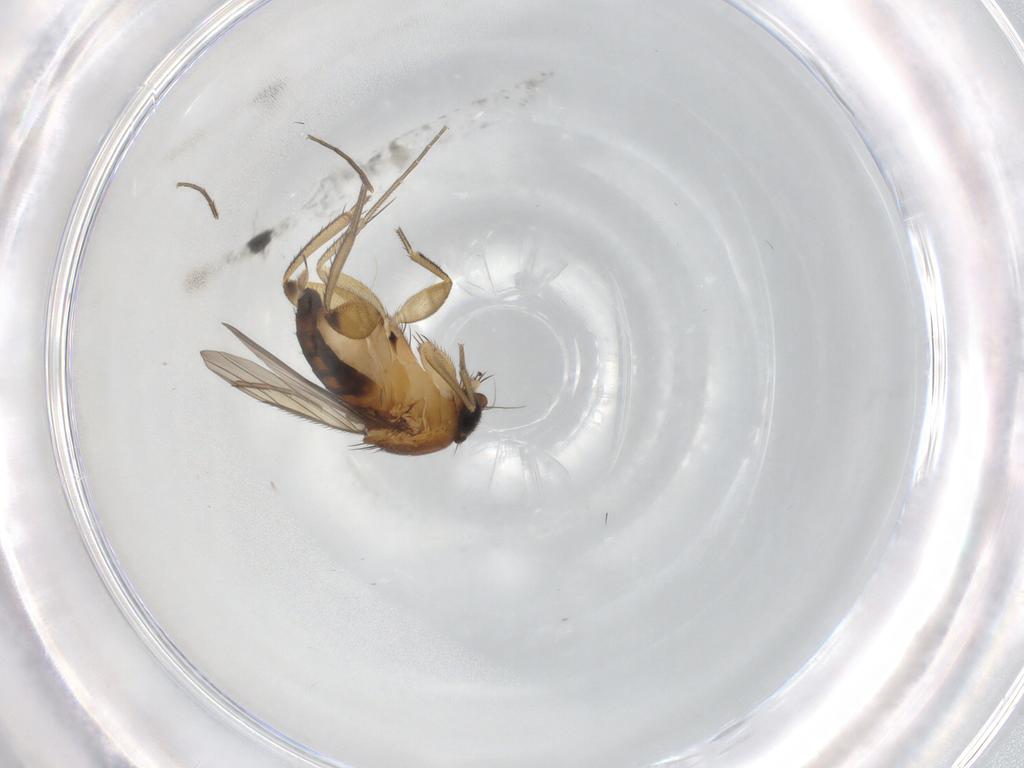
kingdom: Animalia
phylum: Arthropoda
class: Insecta
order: Diptera
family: Phoridae
